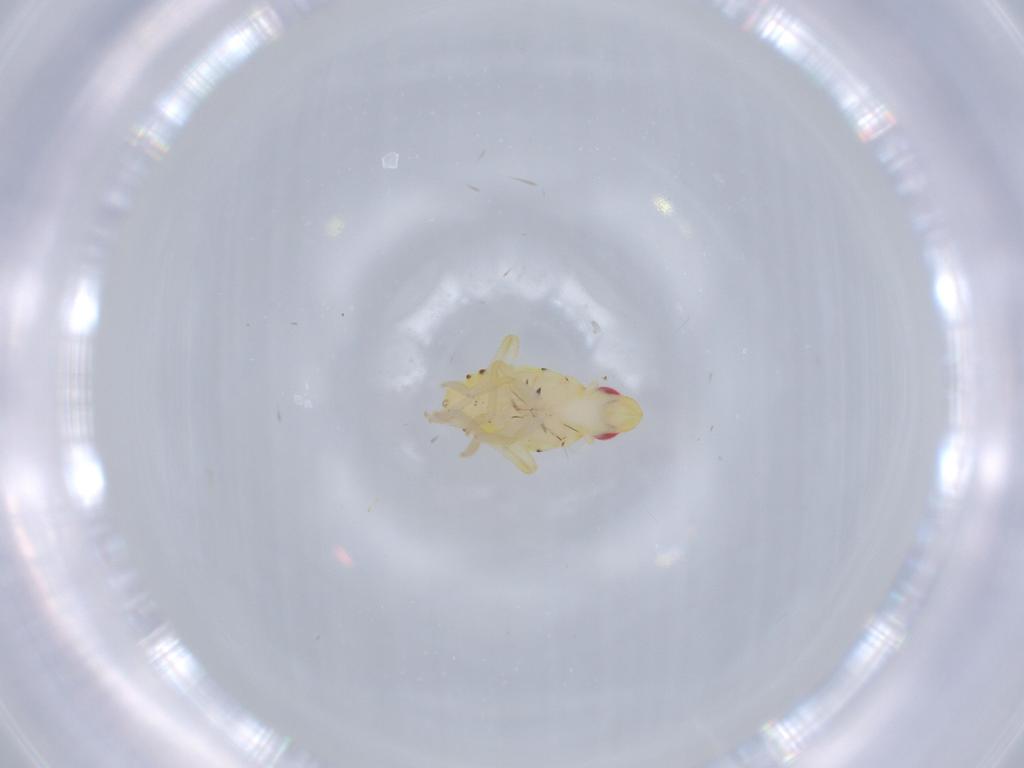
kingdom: Animalia
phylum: Arthropoda
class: Insecta
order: Hemiptera
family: Tropiduchidae
